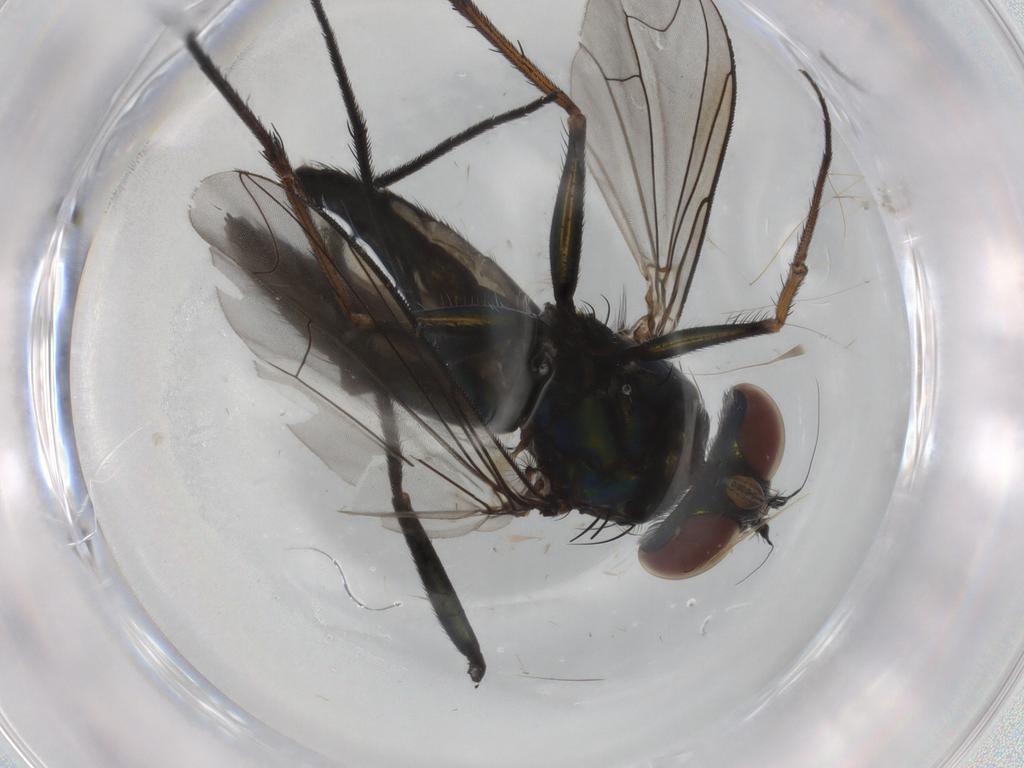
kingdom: Animalia
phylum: Arthropoda
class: Insecta
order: Diptera
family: Dolichopodidae
